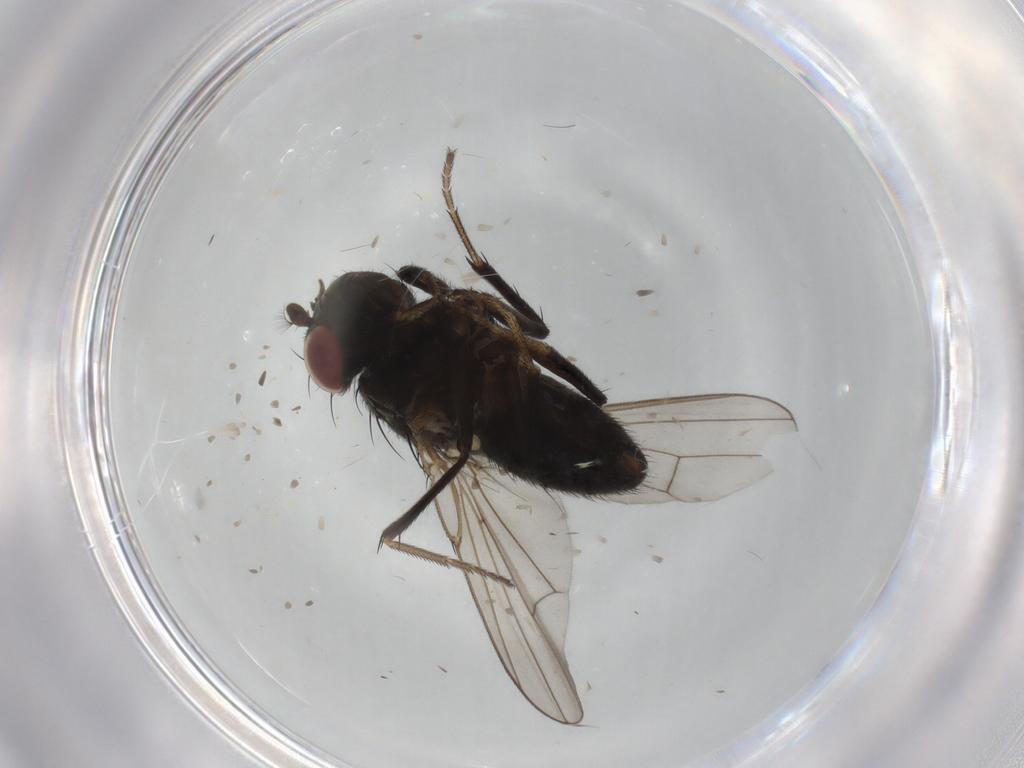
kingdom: Animalia
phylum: Arthropoda
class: Insecta
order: Diptera
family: Ephydridae
